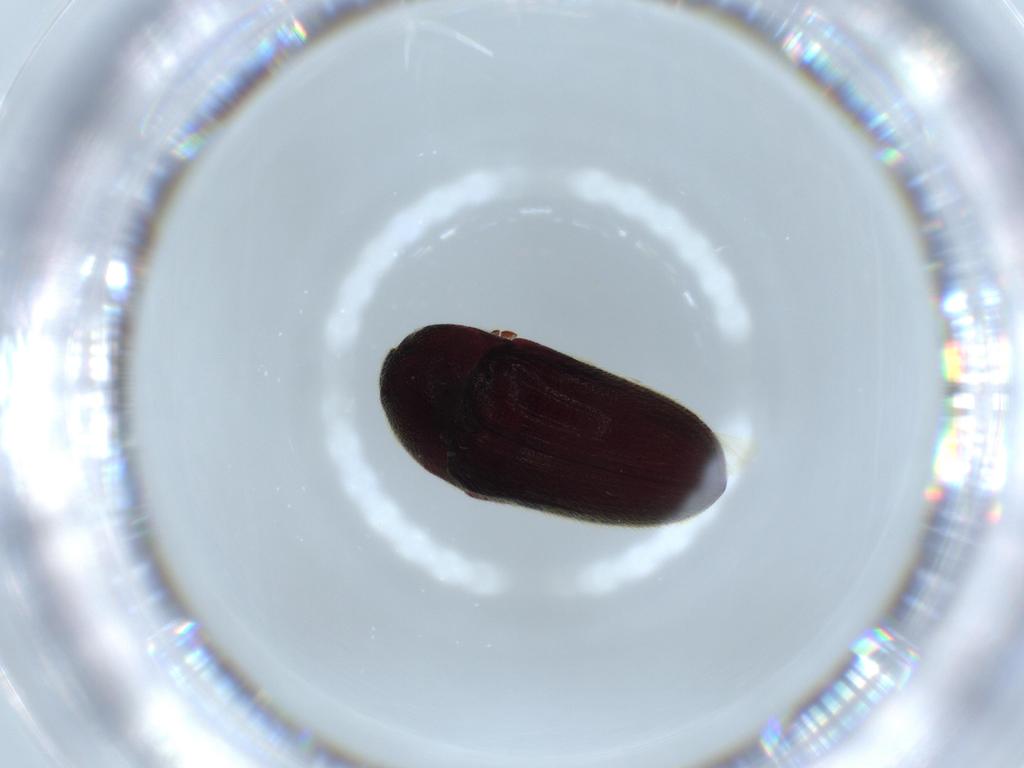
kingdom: Animalia
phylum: Arthropoda
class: Insecta
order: Coleoptera
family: Throscidae
